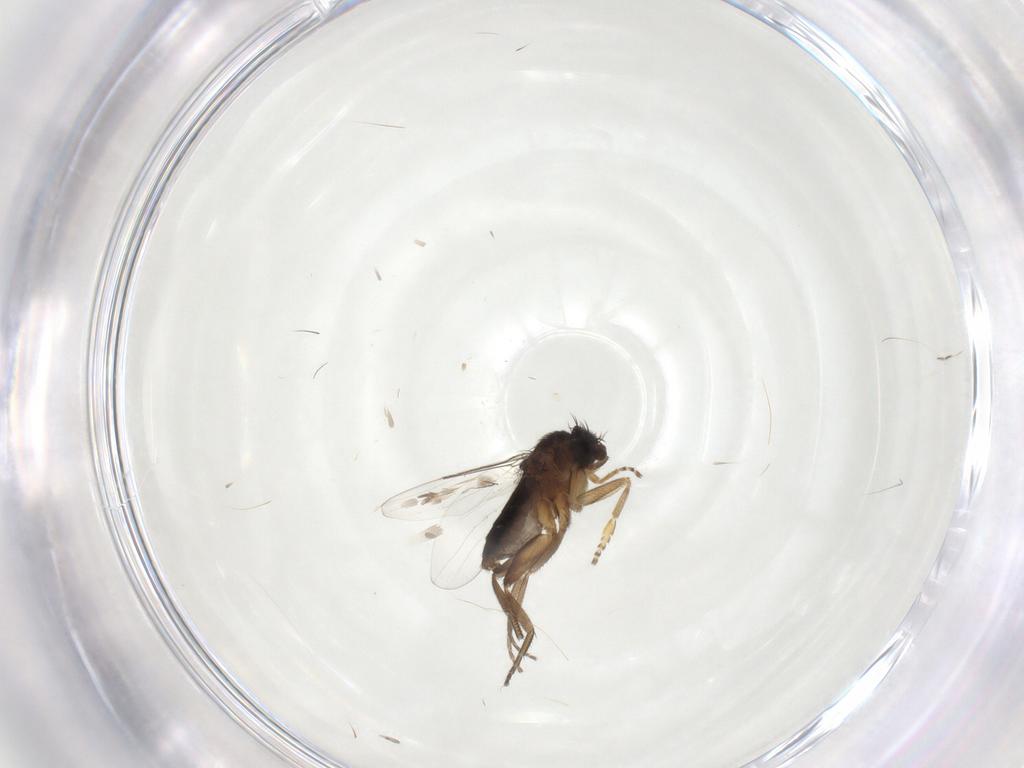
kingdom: Animalia
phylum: Arthropoda
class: Insecta
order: Diptera
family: Phoridae
